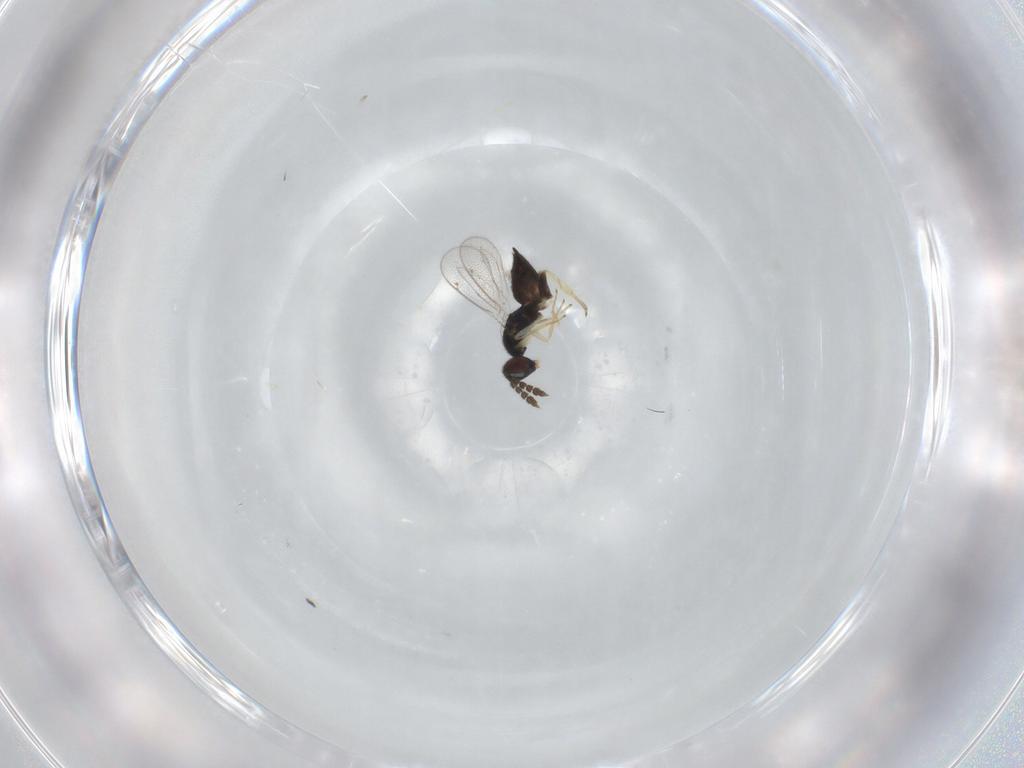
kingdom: Animalia
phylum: Arthropoda
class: Insecta
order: Hymenoptera
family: Eulophidae
